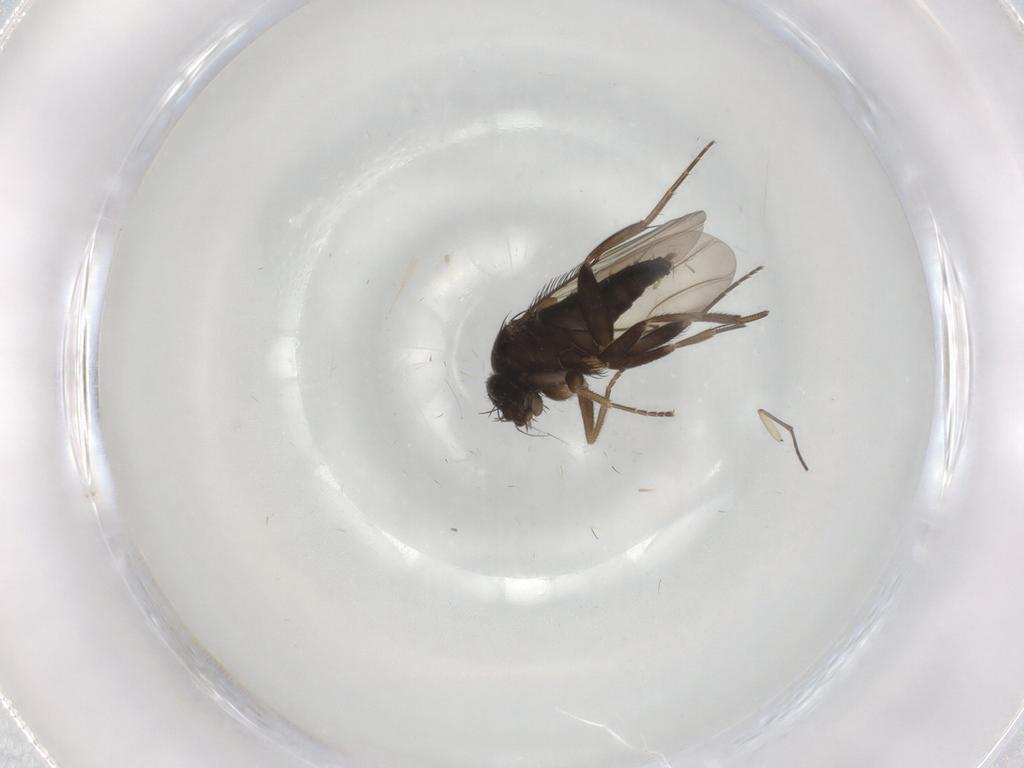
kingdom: Animalia
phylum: Arthropoda
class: Insecta
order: Diptera
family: Phoridae
